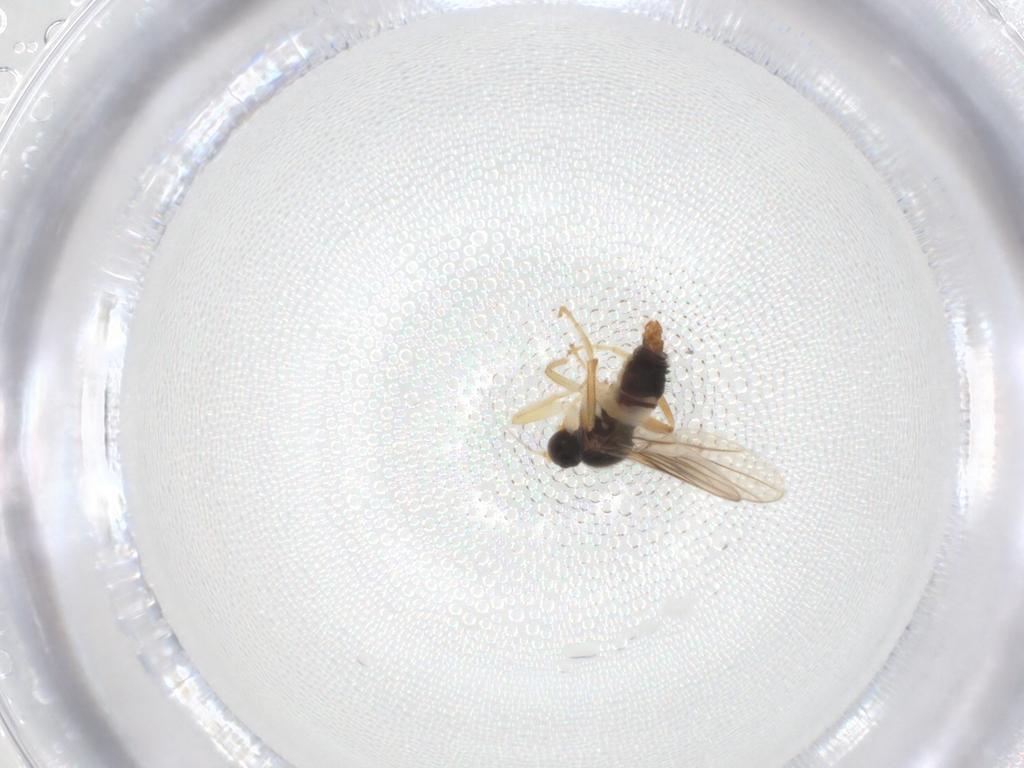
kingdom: Animalia
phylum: Arthropoda
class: Insecta
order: Diptera
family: Hybotidae
